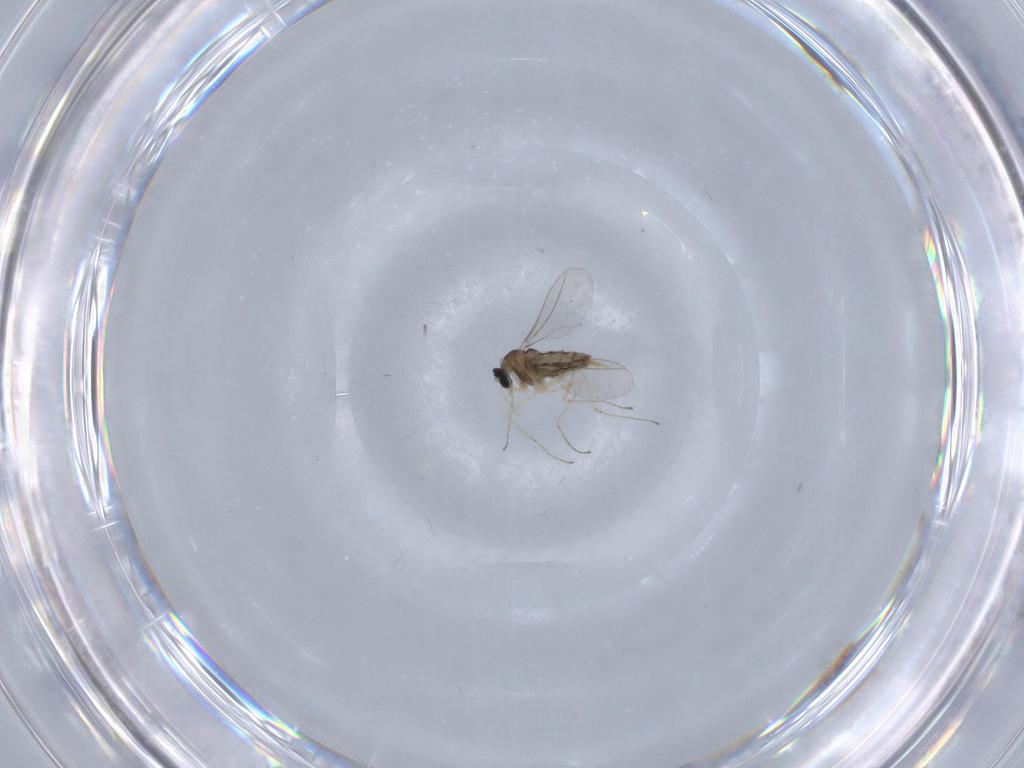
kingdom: Animalia
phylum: Arthropoda
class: Insecta
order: Diptera
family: Cecidomyiidae
